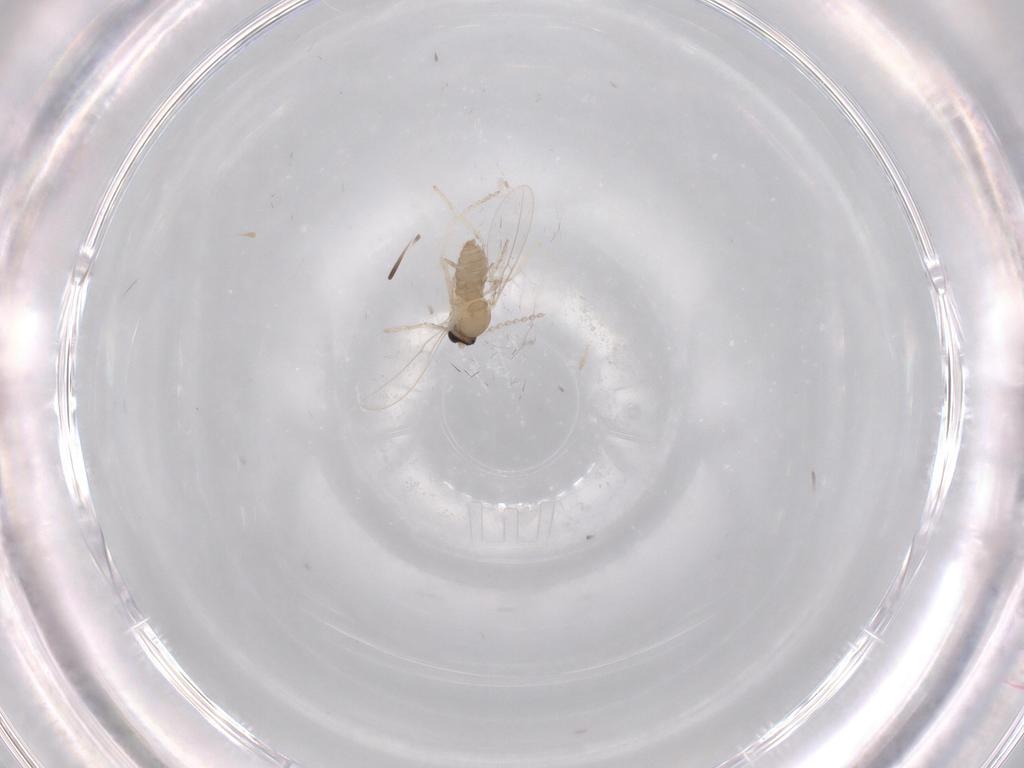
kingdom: Animalia
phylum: Arthropoda
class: Insecta
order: Diptera
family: Cecidomyiidae
